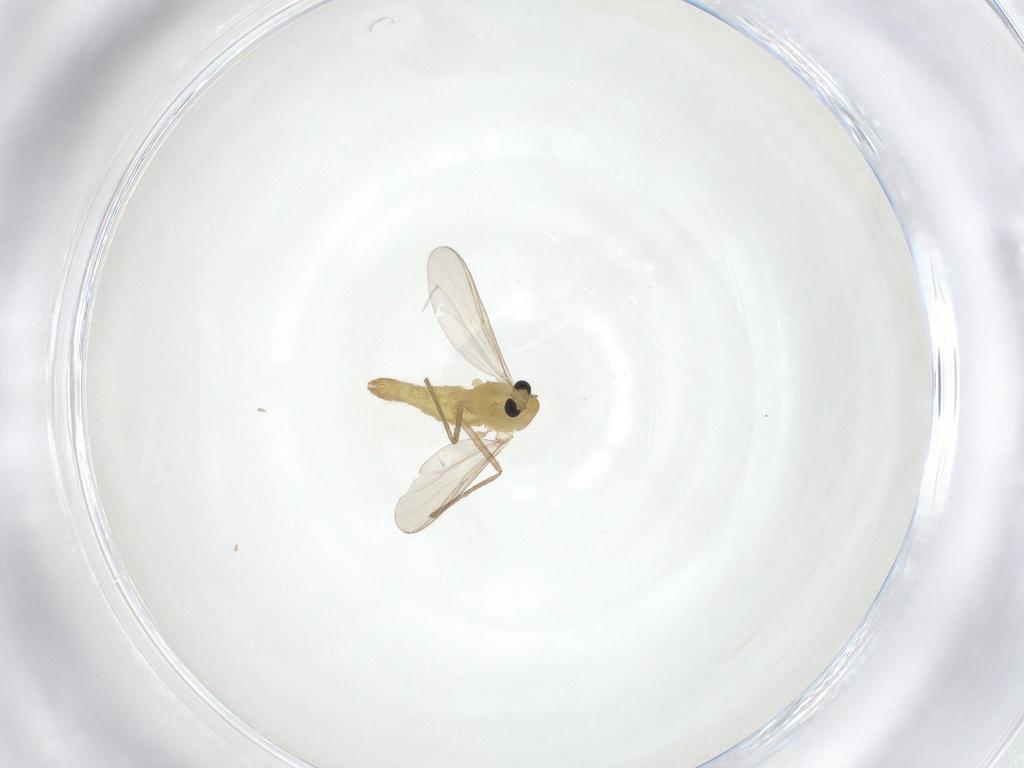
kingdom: Animalia
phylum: Arthropoda
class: Insecta
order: Diptera
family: Chironomidae
